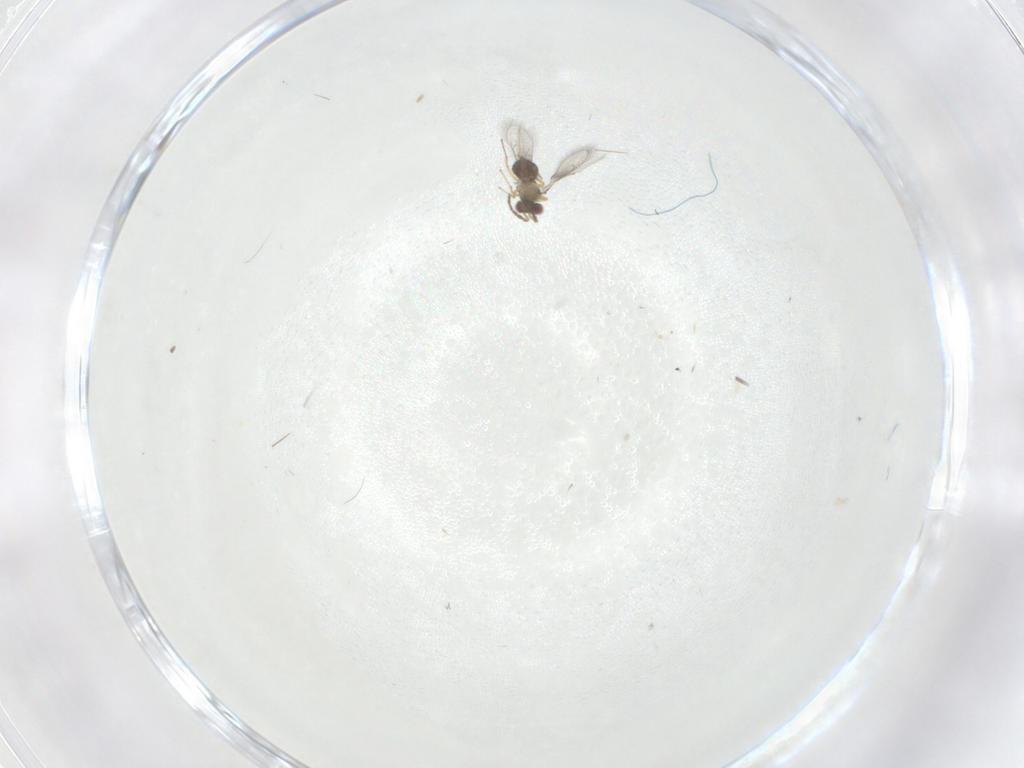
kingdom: Animalia
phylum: Arthropoda
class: Insecta
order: Hymenoptera
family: Eulophidae
